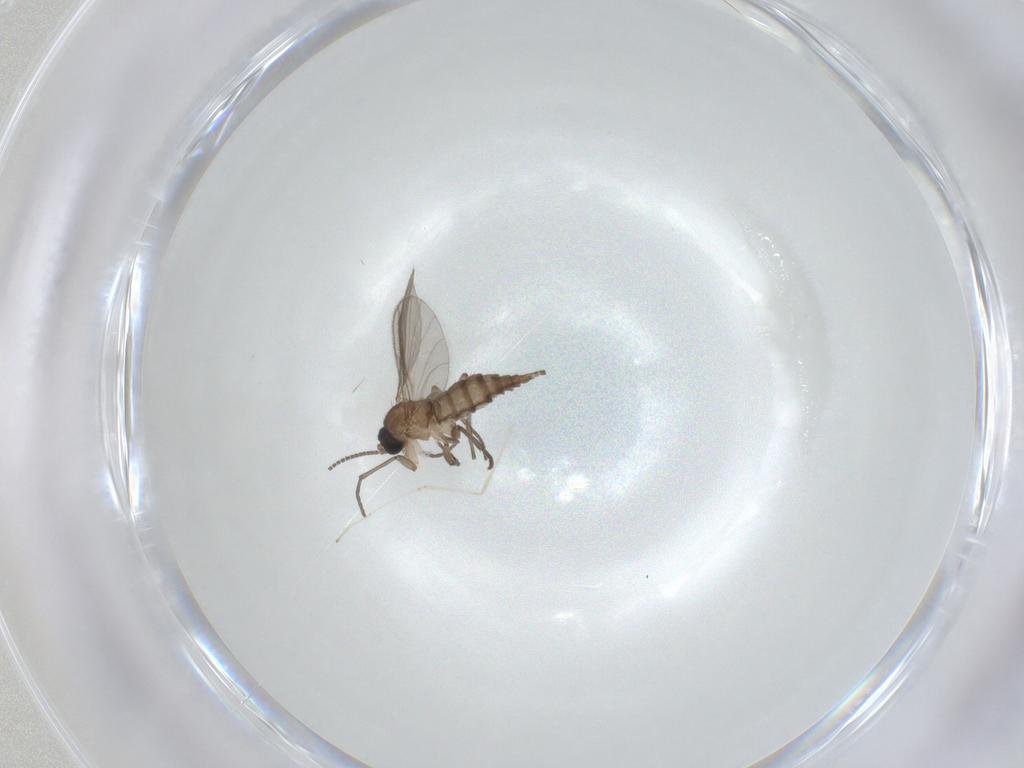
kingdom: Animalia
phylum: Arthropoda
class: Insecta
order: Diptera
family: Sciaridae
